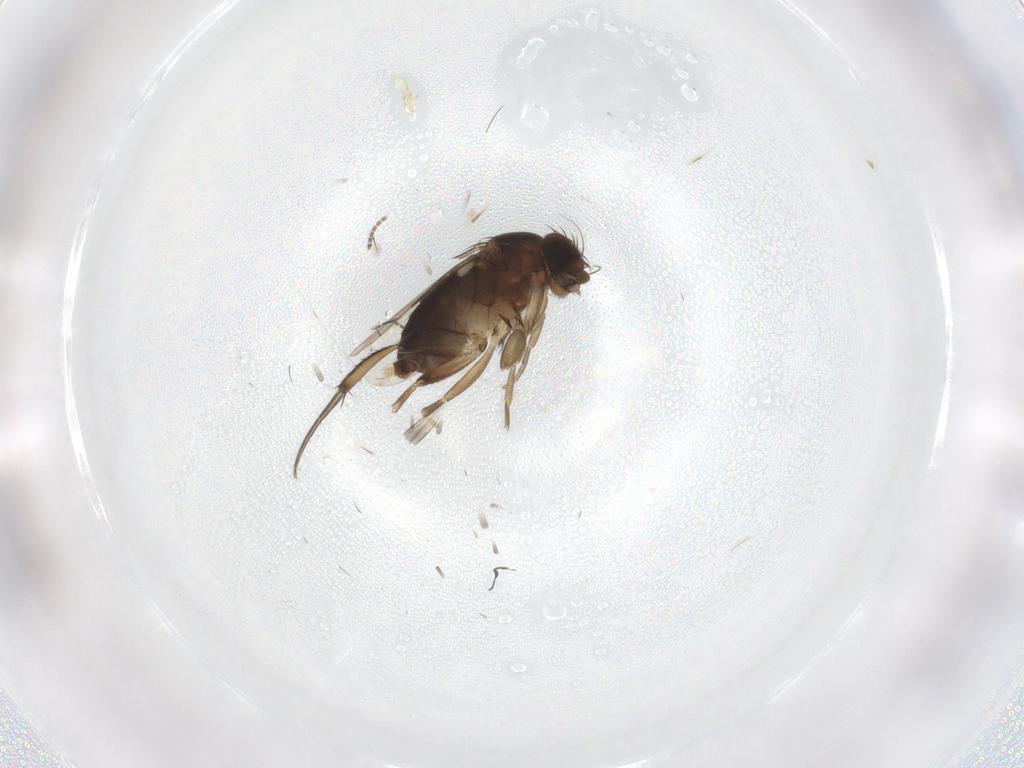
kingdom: Animalia
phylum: Arthropoda
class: Insecta
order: Diptera
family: Phoridae
